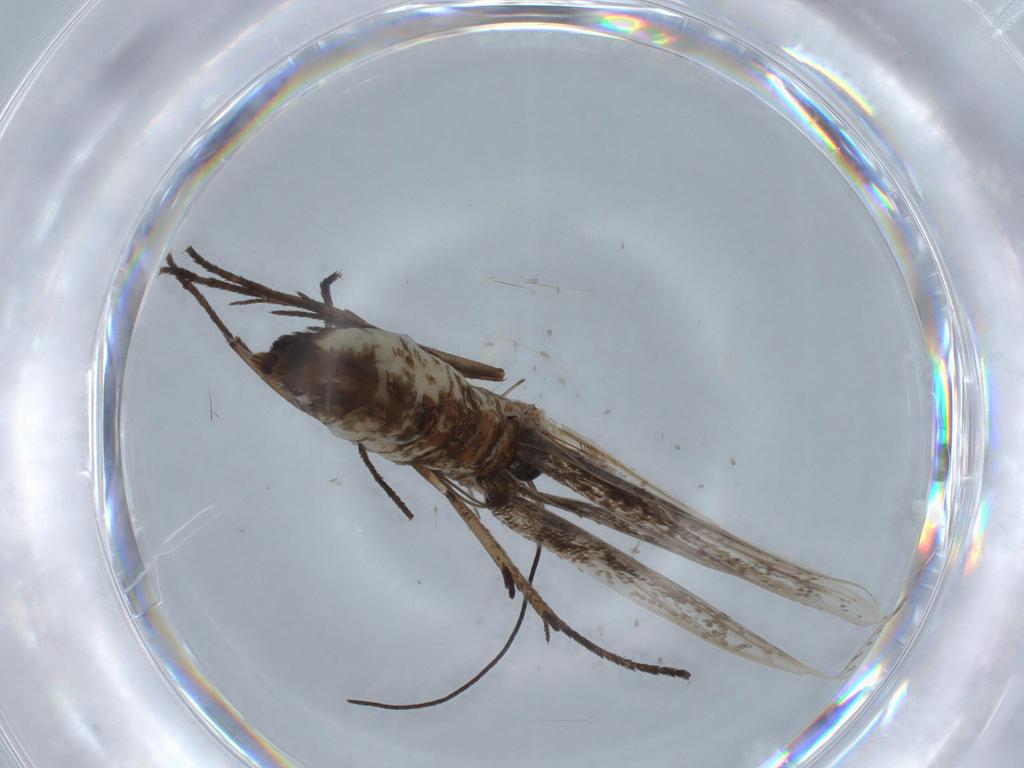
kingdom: Animalia
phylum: Arthropoda
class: Insecta
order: Lepidoptera
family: Coleophoridae
